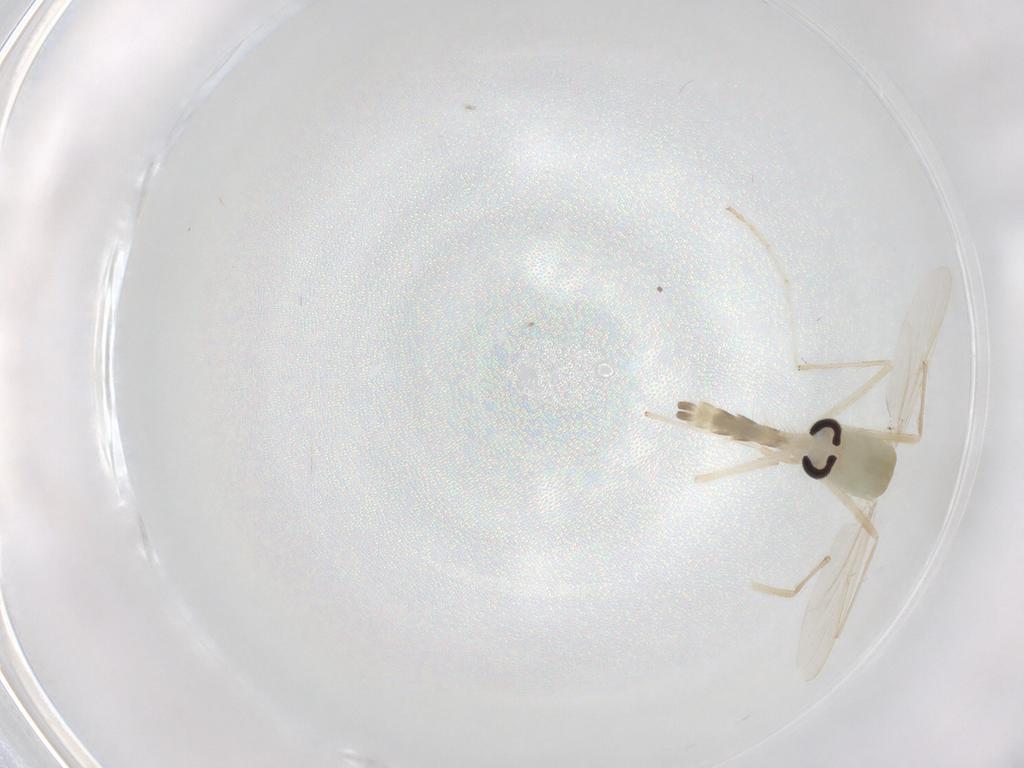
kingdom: Animalia
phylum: Arthropoda
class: Insecta
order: Diptera
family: Chironomidae
